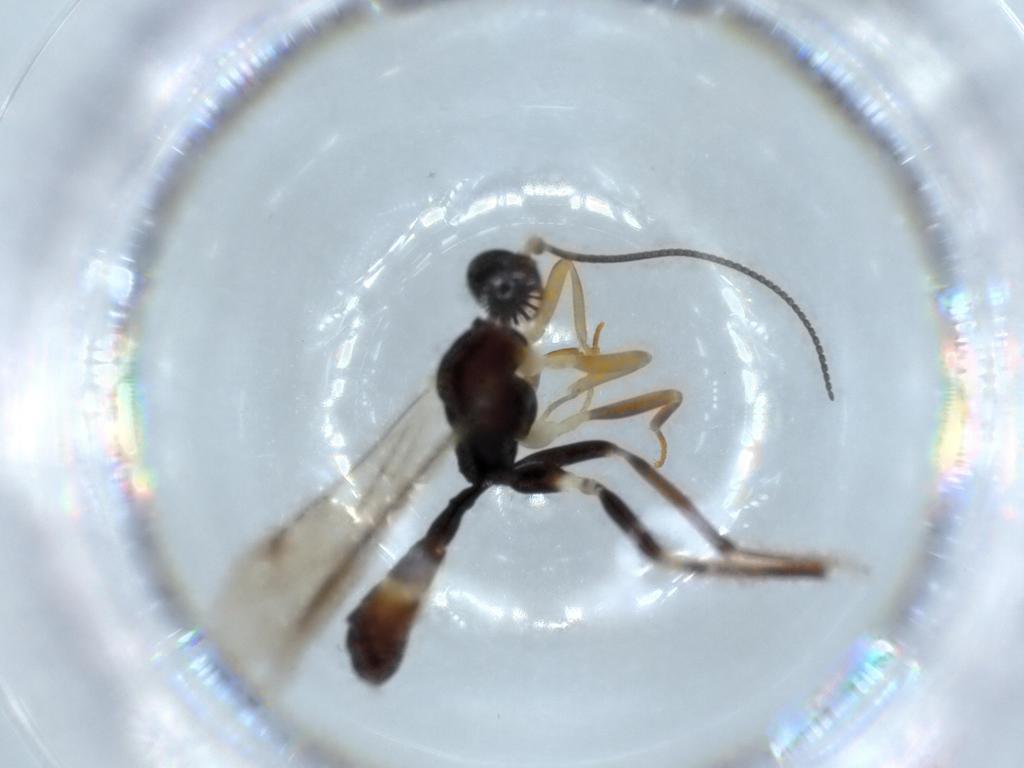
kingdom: Animalia
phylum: Arthropoda
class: Insecta
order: Hymenoptera
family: Ichneumonidae
